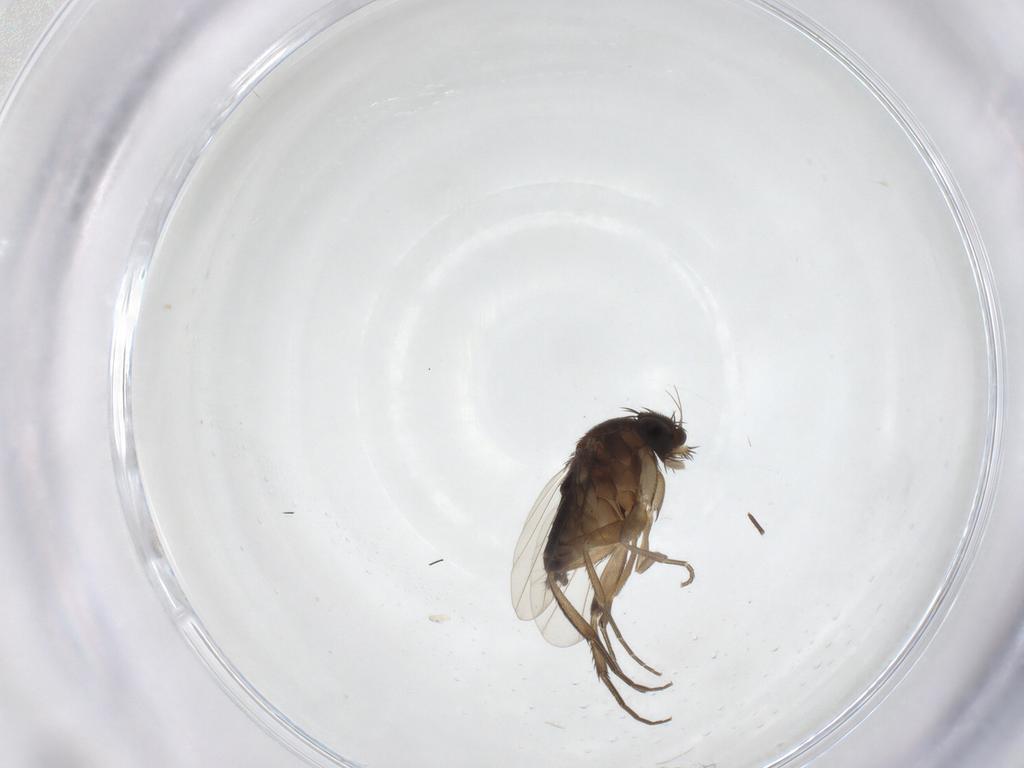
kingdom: Animalia
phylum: Arthropoda
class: Insecta
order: Diptera
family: Phoridae
